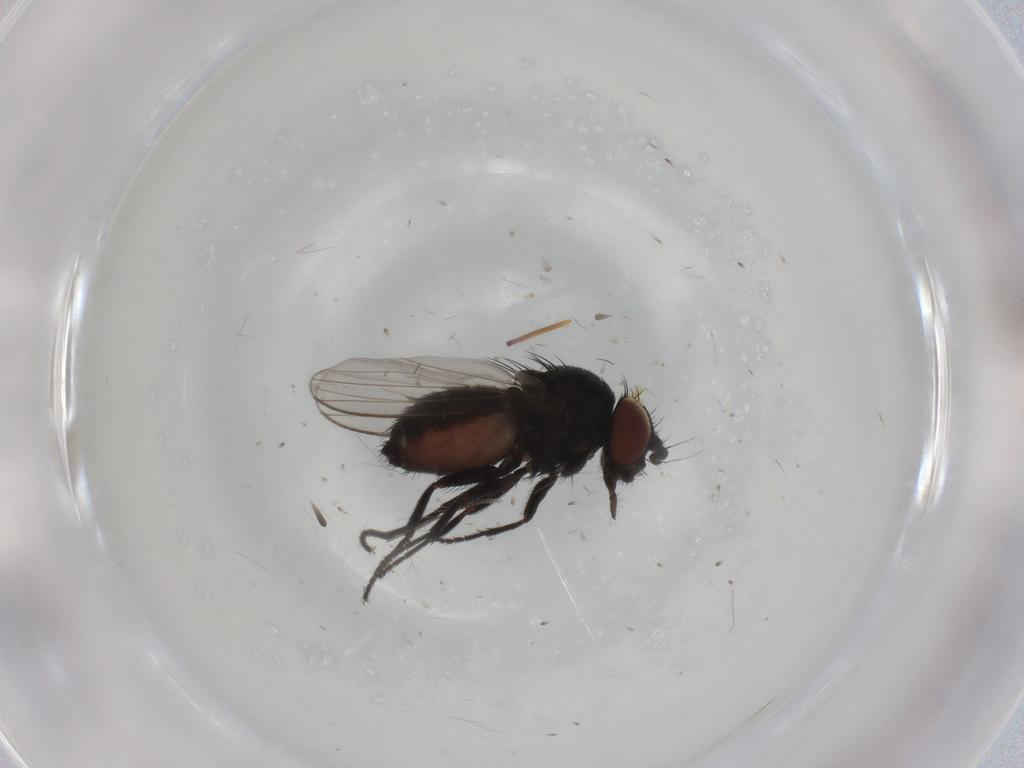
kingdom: Animalia
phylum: Arthropoda
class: Insecta
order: Diptera
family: Milichiidae
